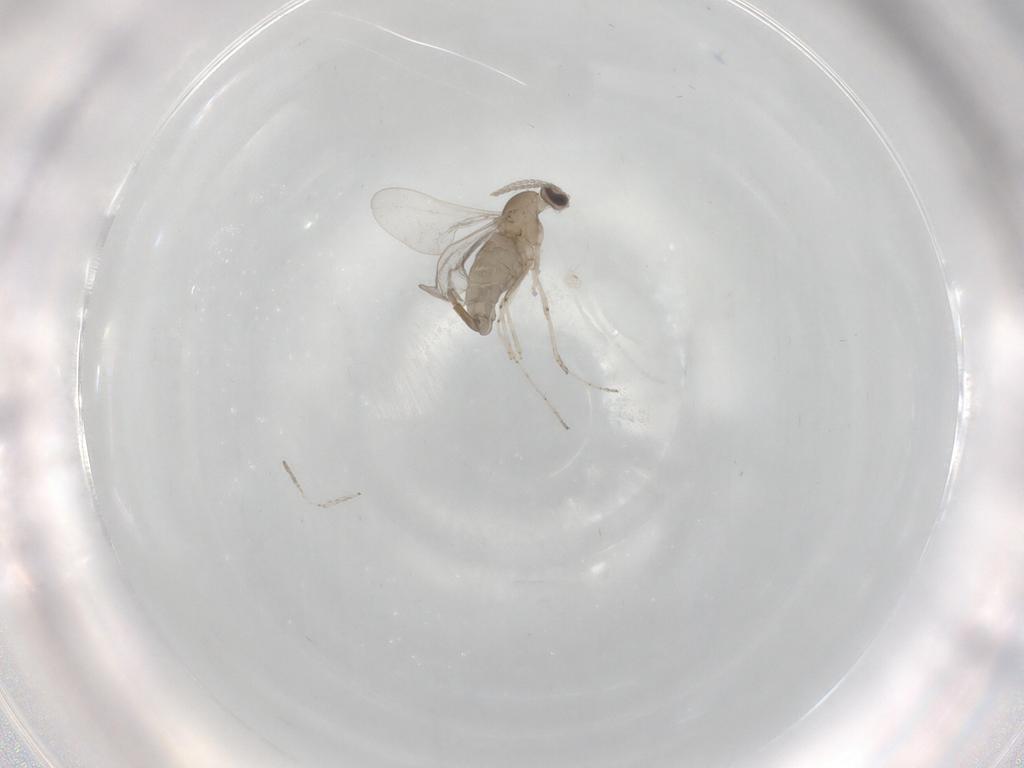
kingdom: Animalia
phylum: Arthropoda
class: Insecta
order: Diptera
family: Cecidomyiidae
